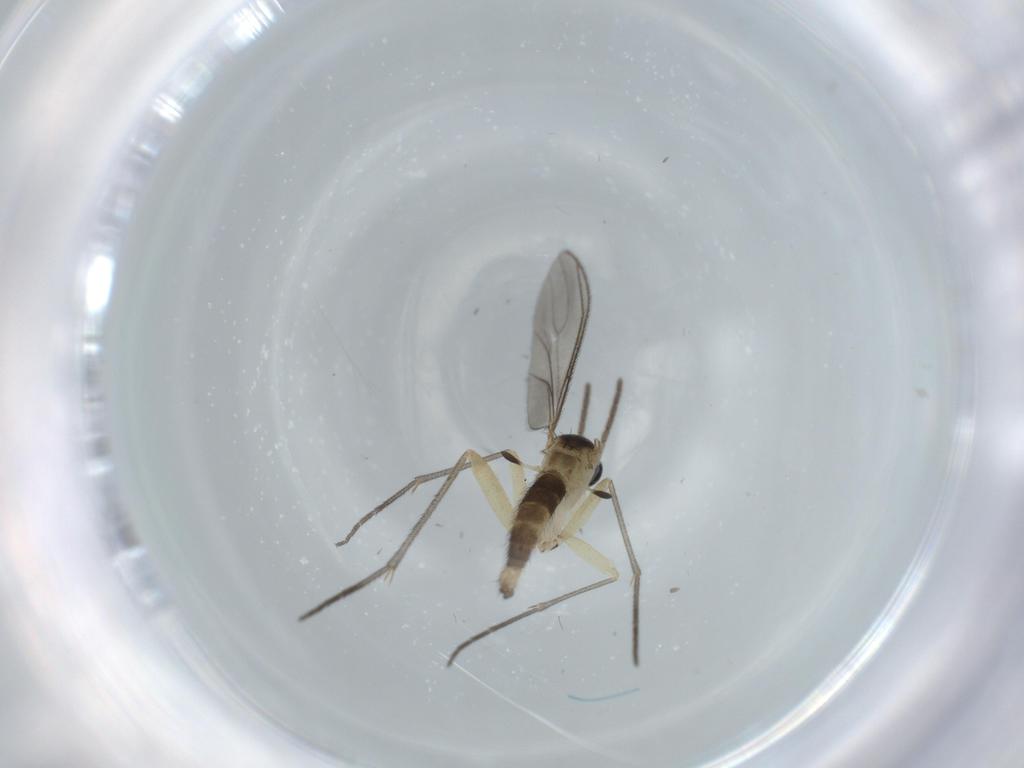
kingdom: Animalia
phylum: Arthropoda
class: Insecta
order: Diptera
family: Sciaridae
